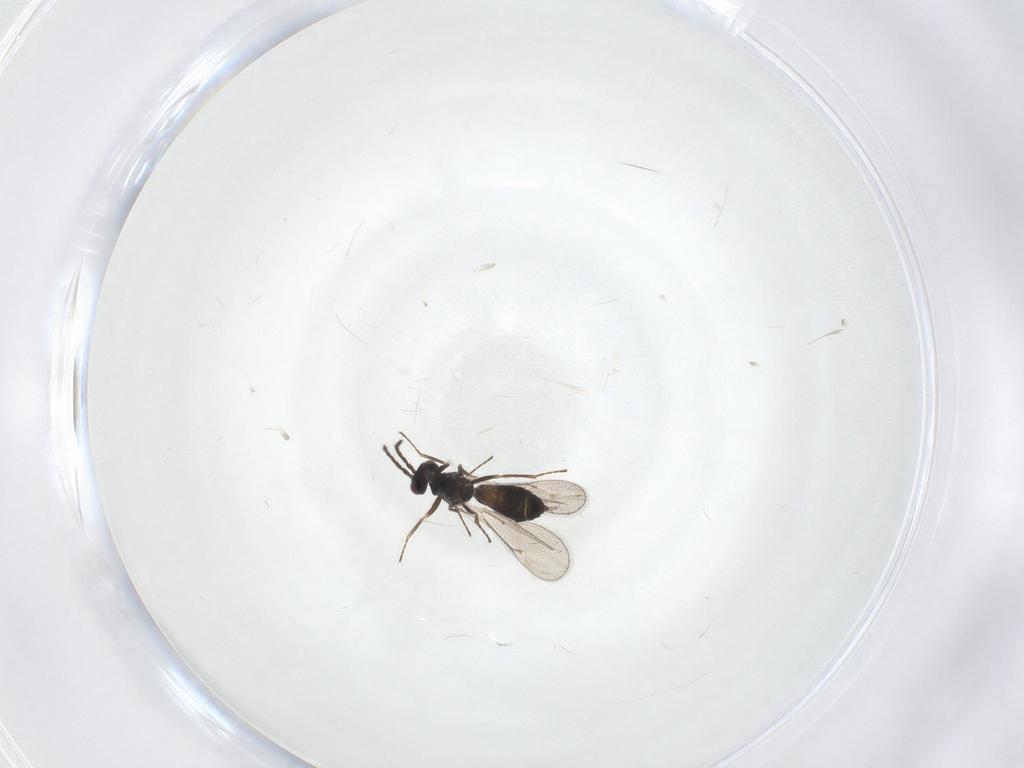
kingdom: Animalia
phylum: Arthropoda
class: Insecta
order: Hymenoptera
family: Eulophidae
